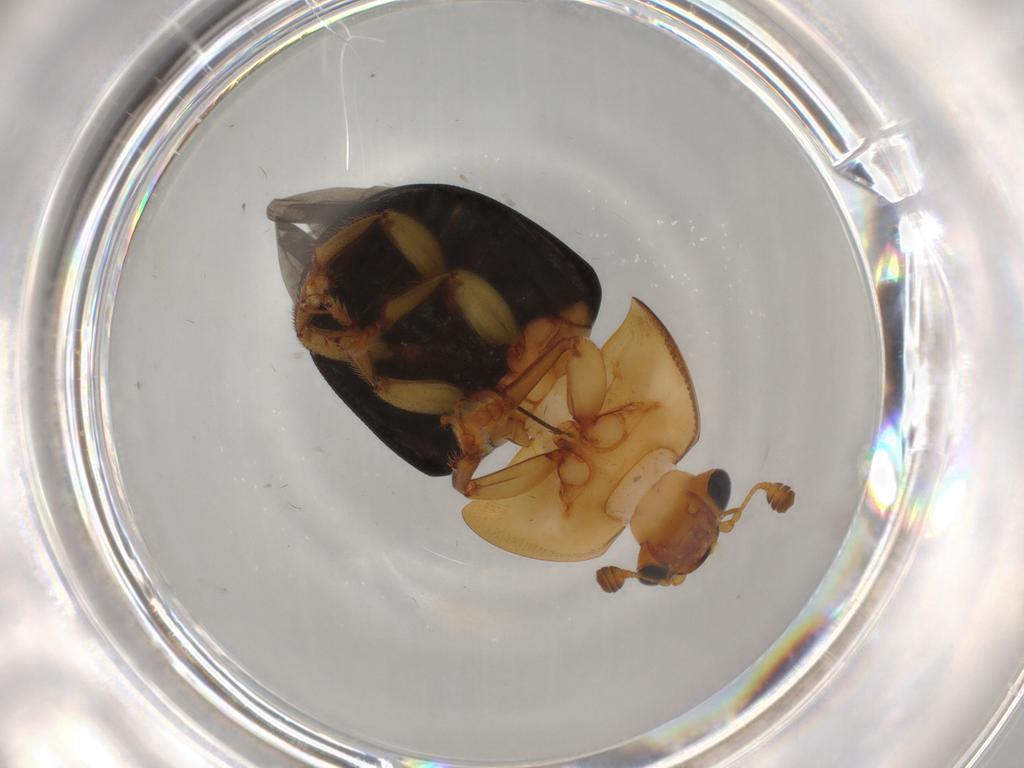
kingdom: Animalia
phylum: Arthropoda
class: Insecta
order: Coleoptera
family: Nitidulidae
